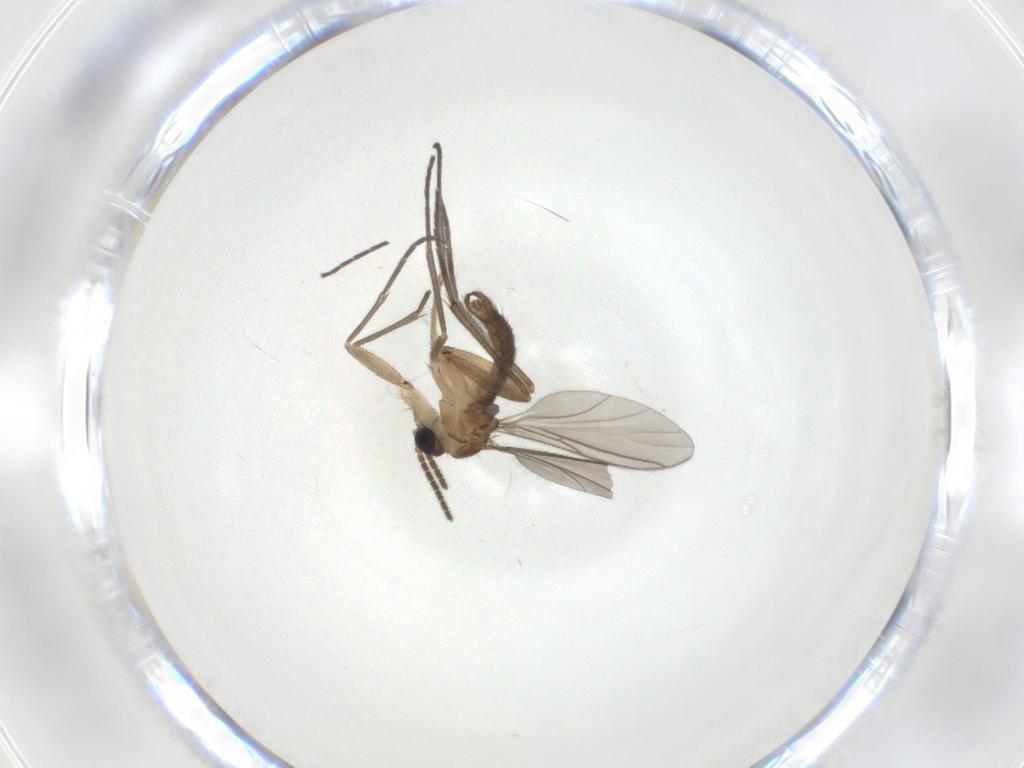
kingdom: Animalia
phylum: Arthropoda
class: Insecta
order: Diptera
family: Sciaridae
